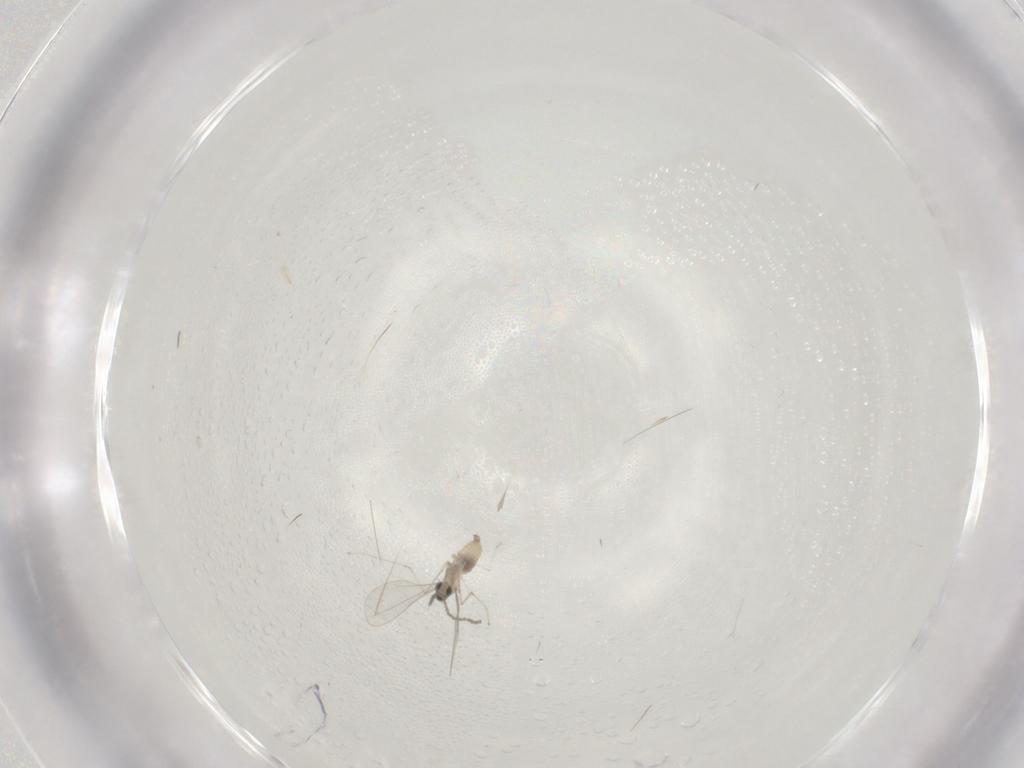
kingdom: Animalia
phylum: Arthropoda
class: Insecta
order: Diptera
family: Cecidomyiidae
